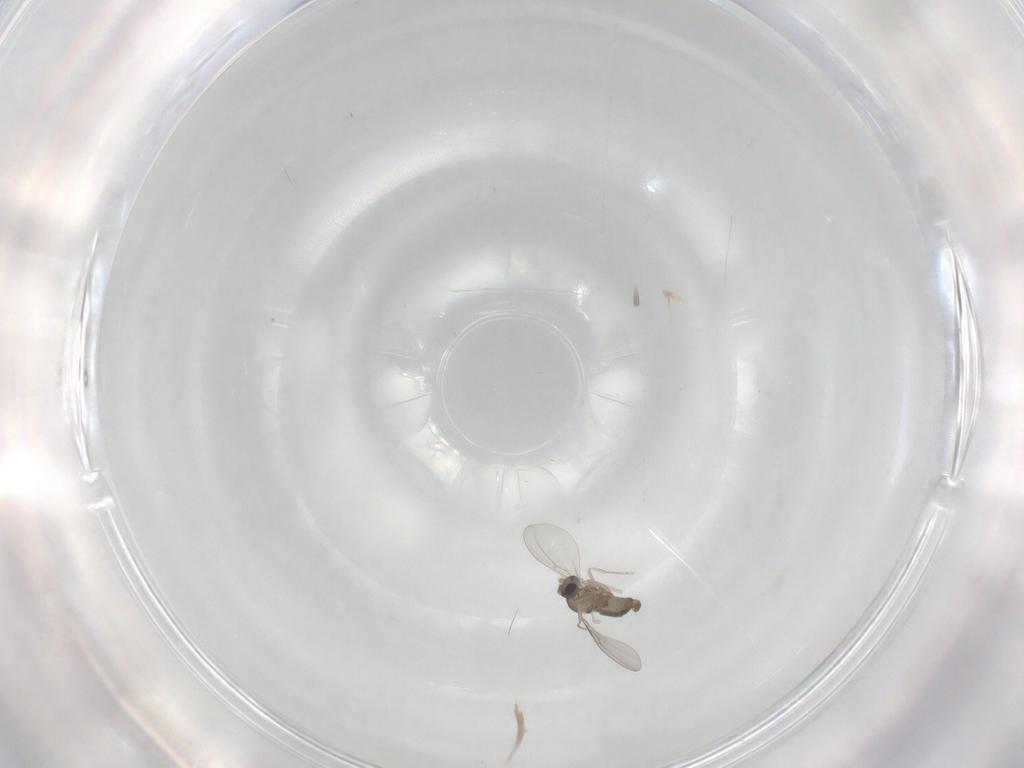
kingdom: Animalia
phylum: Arthropoda
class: Insecta
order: Diptera
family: Cecidomyiidae
